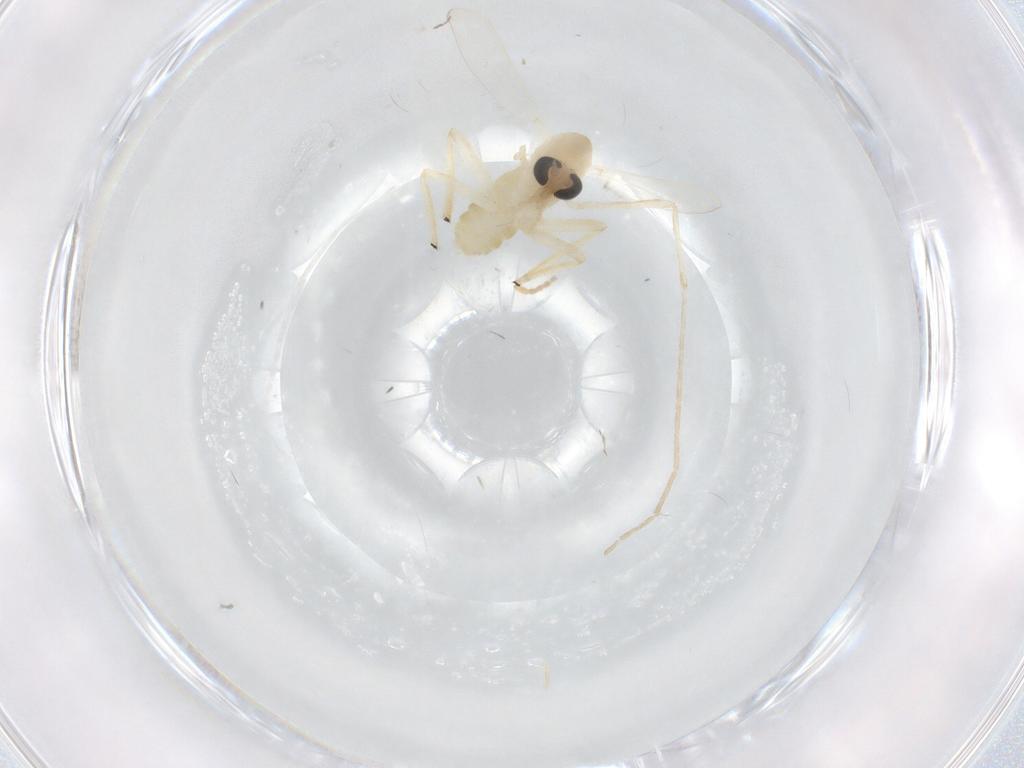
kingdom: Animalia
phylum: Arthropoda
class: Insecta
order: Diptera
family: Chironomidae
